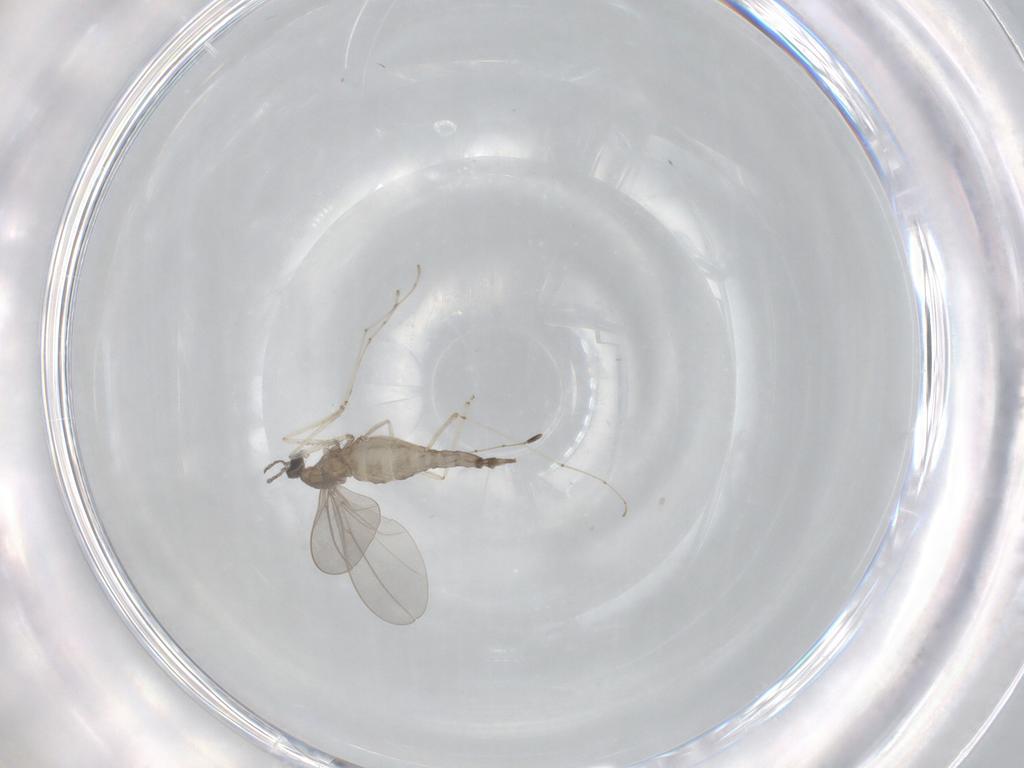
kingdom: Animalia
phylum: Arthropoda
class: Insecta
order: Diptera
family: Cecidomyiidae
